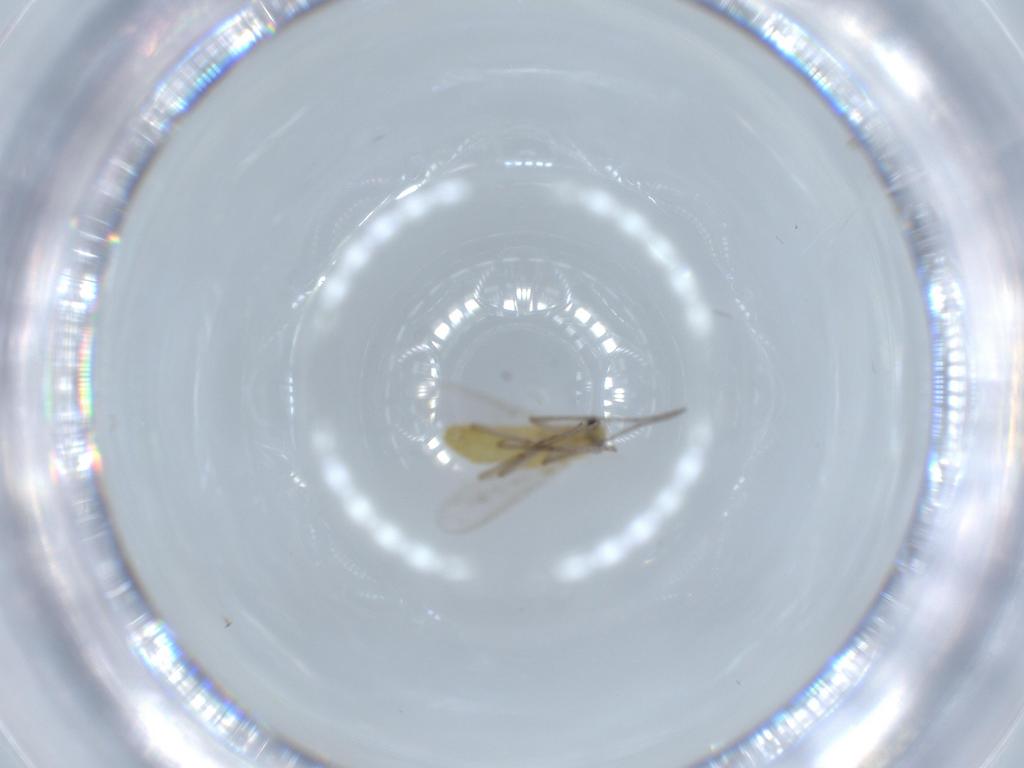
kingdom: Animalia
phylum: Arthropoda
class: Insecta
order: Diptera
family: Chironomidae
